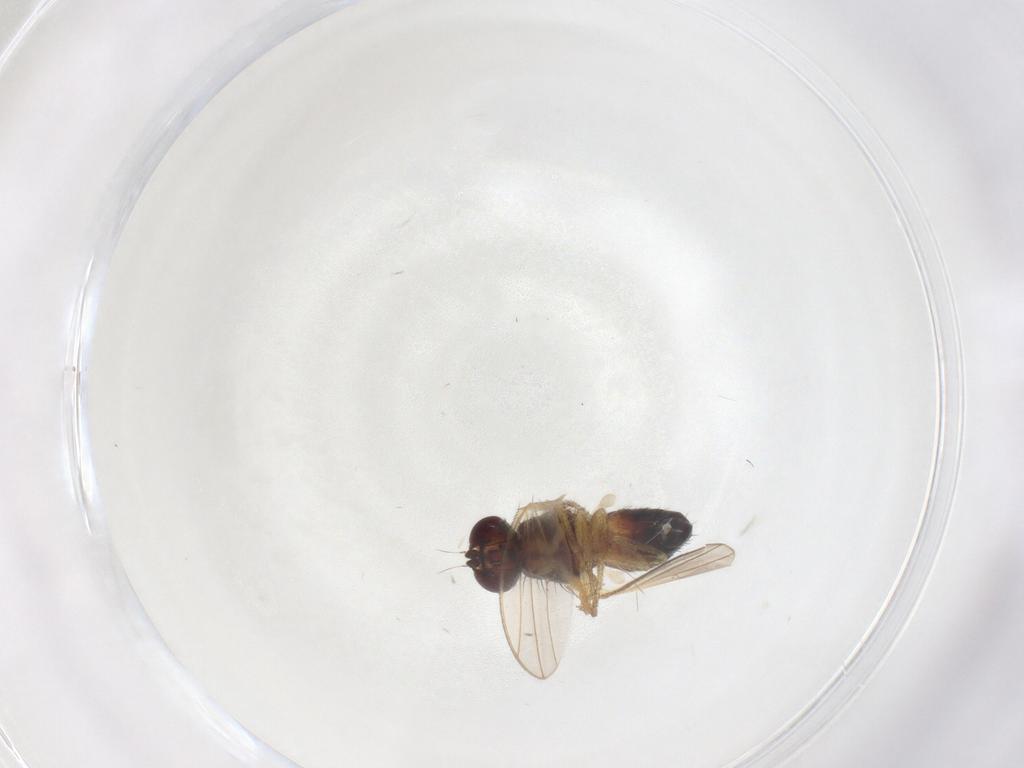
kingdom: Animalia
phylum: Arthropoda
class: Insecta
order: Diptera
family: Heleomyzidae
